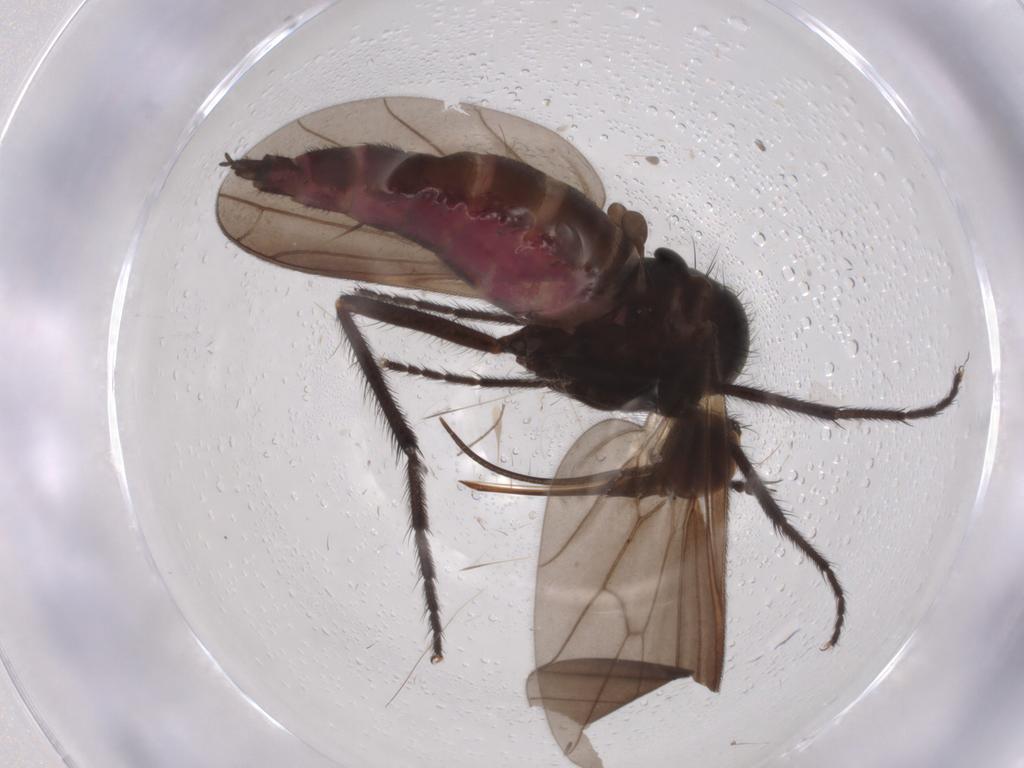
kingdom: Animalia
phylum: Arthropoda
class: Insecta
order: Diptera
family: Empididae
